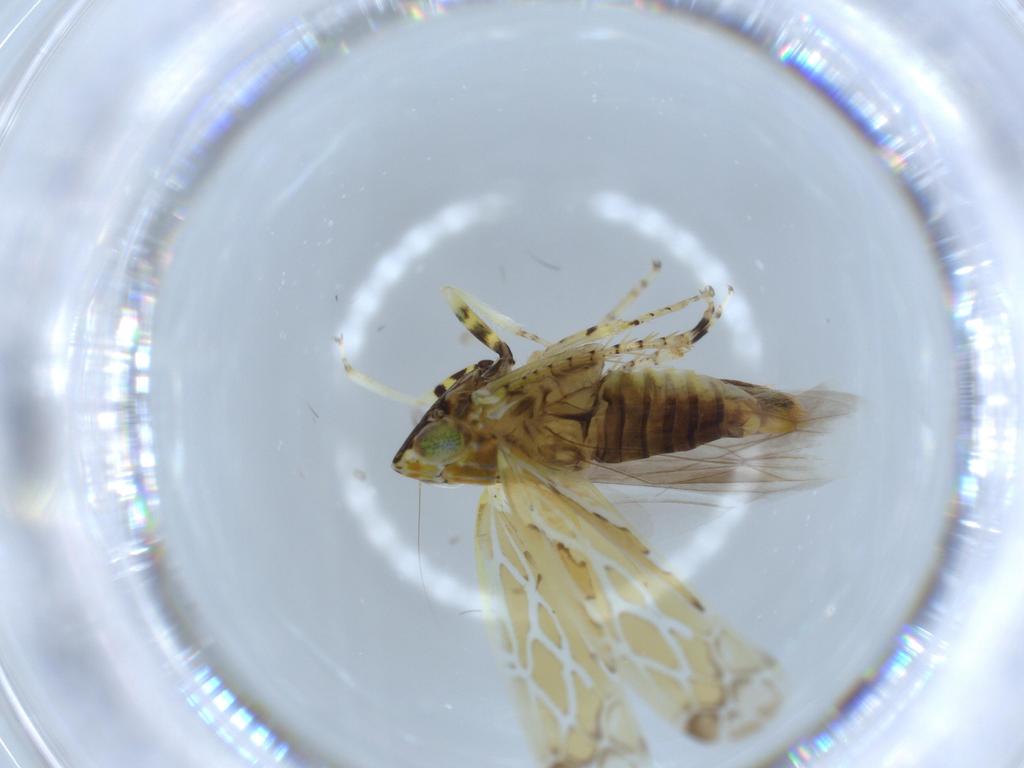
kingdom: Animalia
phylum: Arthropoda
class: Insecta
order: Hemiptera
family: Cicadellidae
